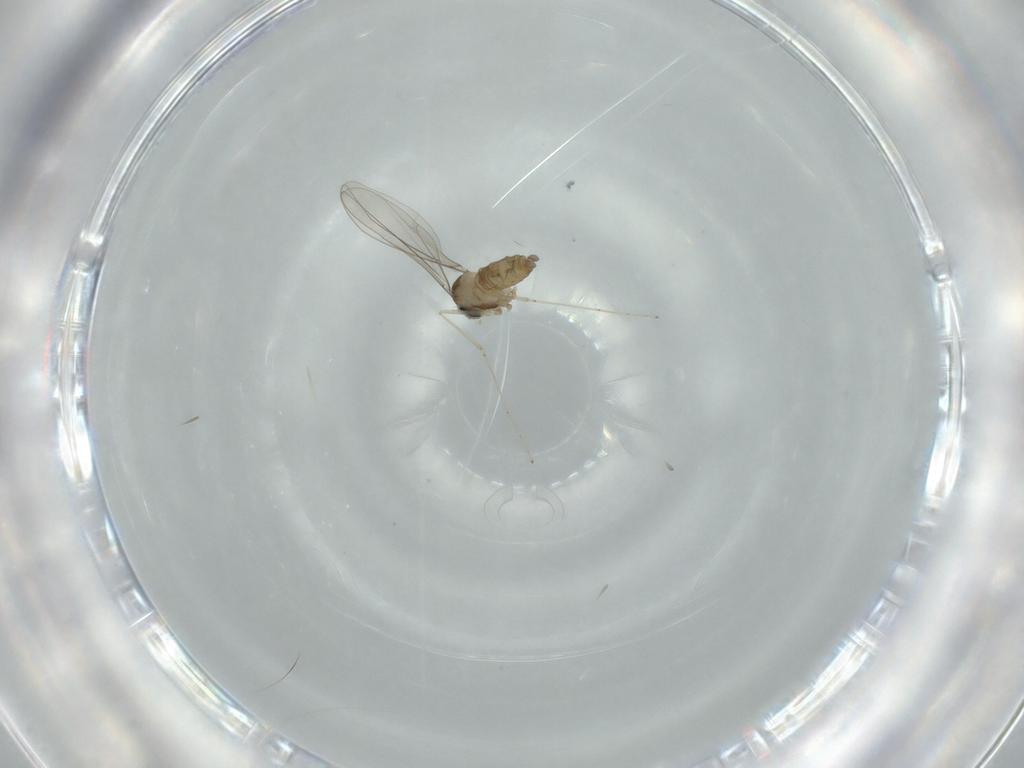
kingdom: Animalia
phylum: Arthropoda
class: Insecta
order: Diptera
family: Cecidomyiidae
